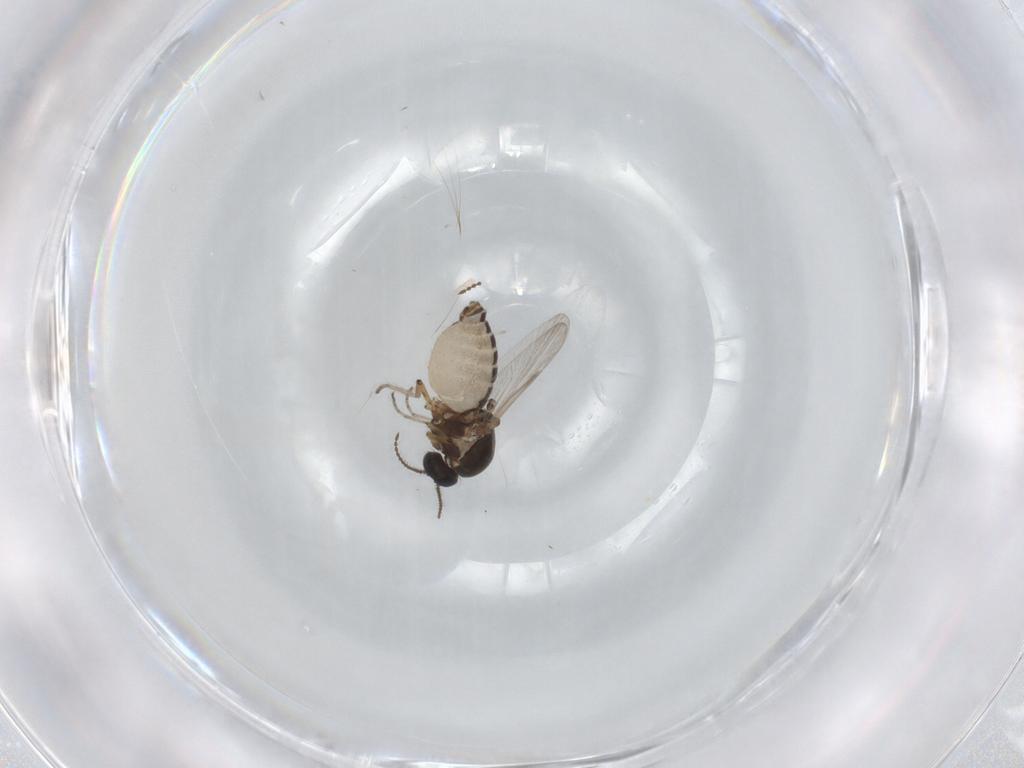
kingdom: Animalia
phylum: Arthropoda
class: Insecta
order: Diptera
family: Ceratopogonidae
